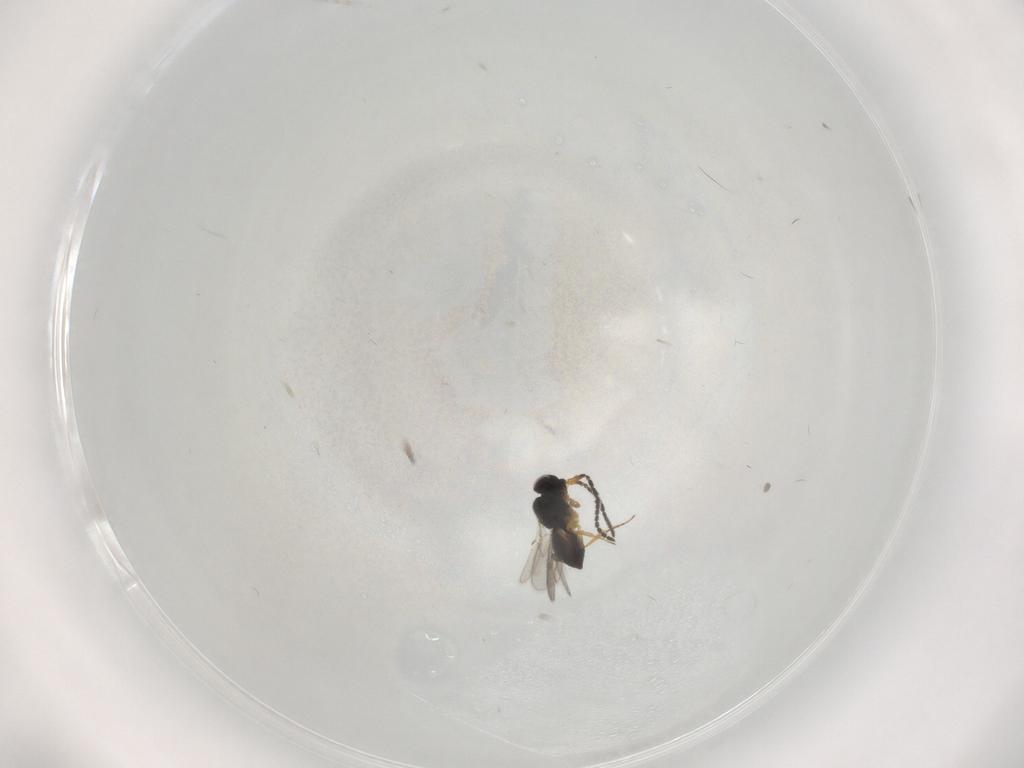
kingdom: Animalia
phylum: Arthropoda
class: Insecta
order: Hymenoptera
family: Scelionidae
